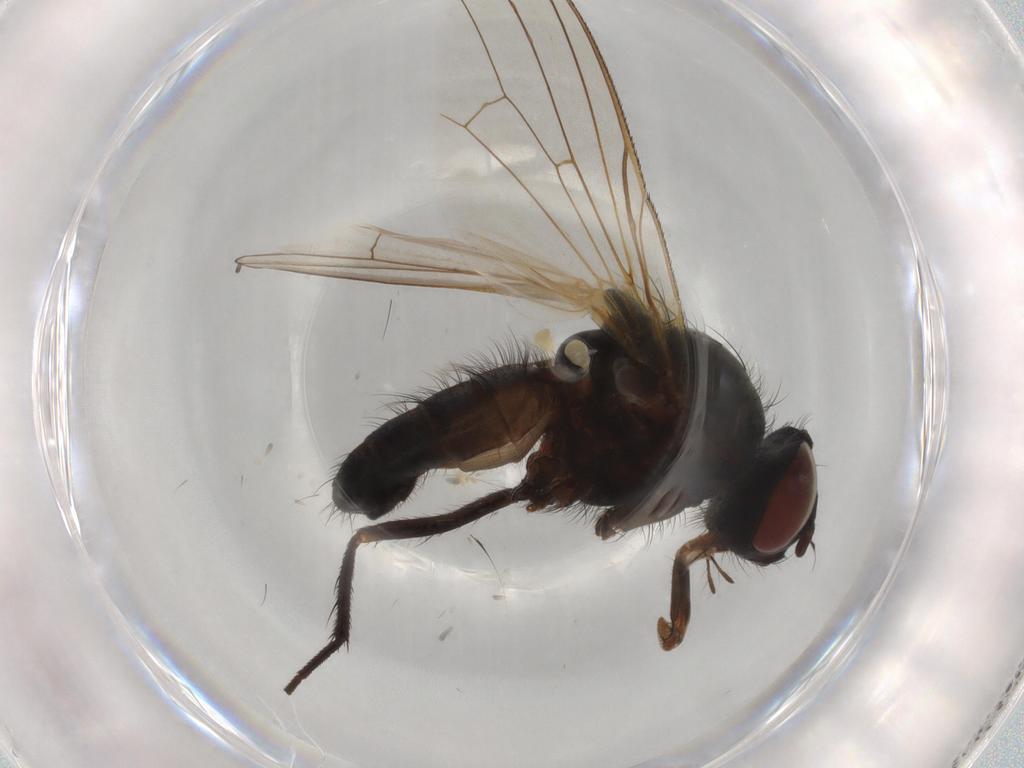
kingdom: Animalia
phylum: Arthropoda
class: Insecta
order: Diptera
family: Anthomyiidae
